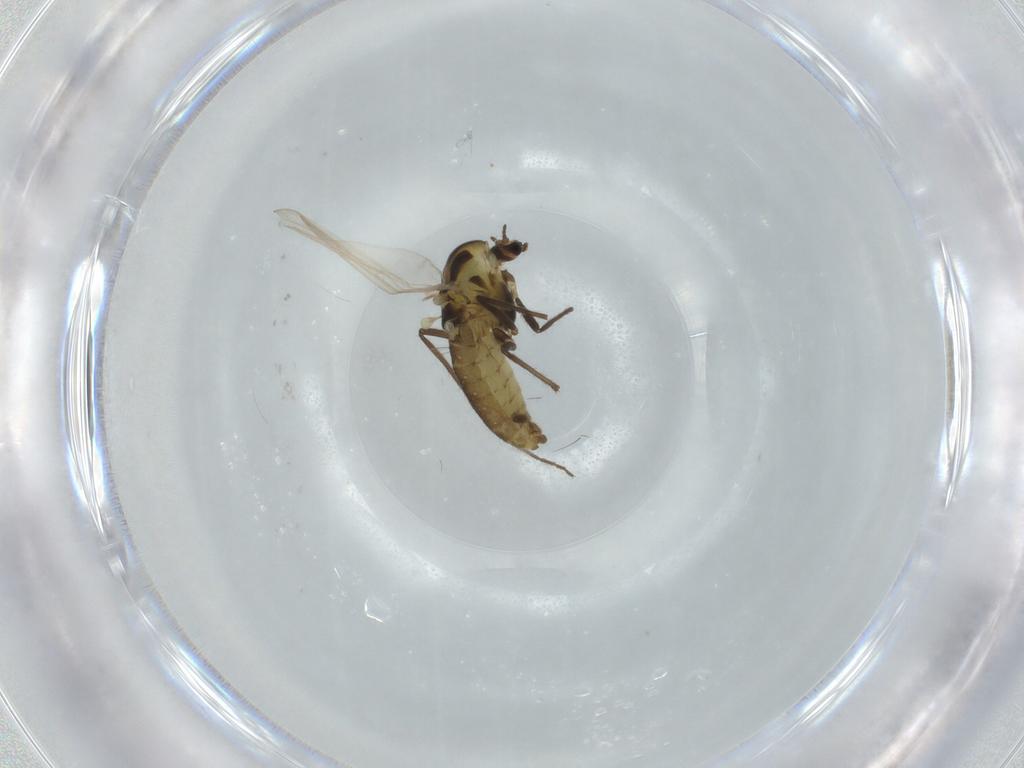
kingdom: Animalia
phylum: Arthropoda
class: Insecta
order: Diptera
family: Chironomidae
